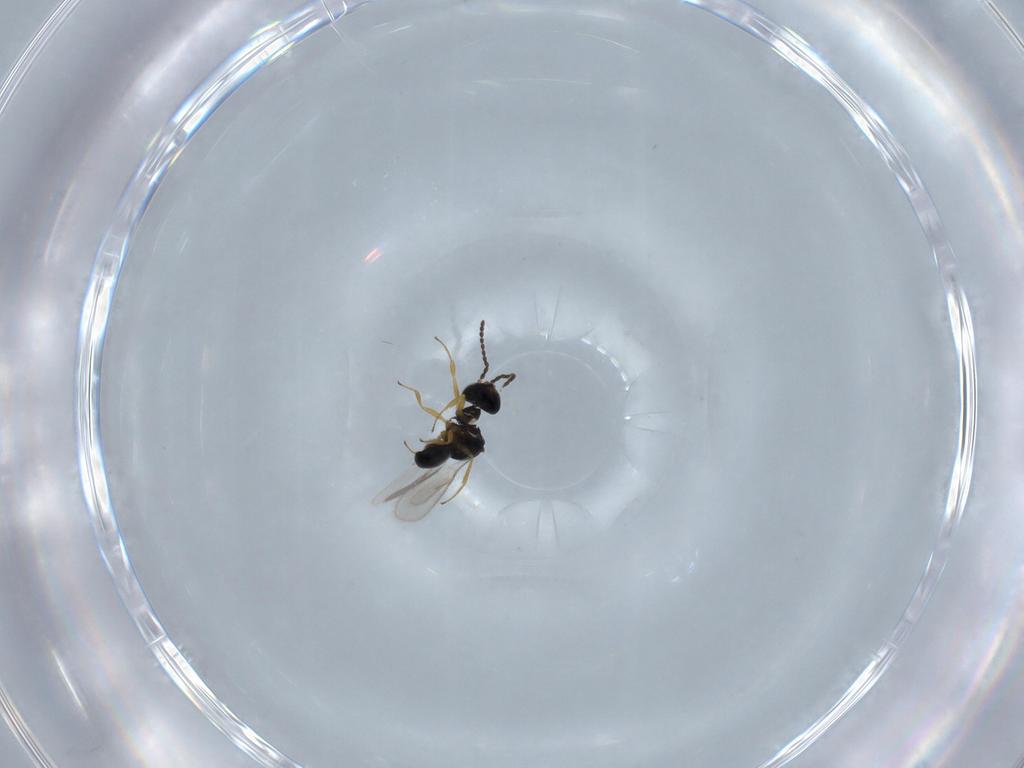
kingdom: Animalia
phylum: Arthropoda
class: Insecta
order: Hymenoptera
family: Scelionidae
